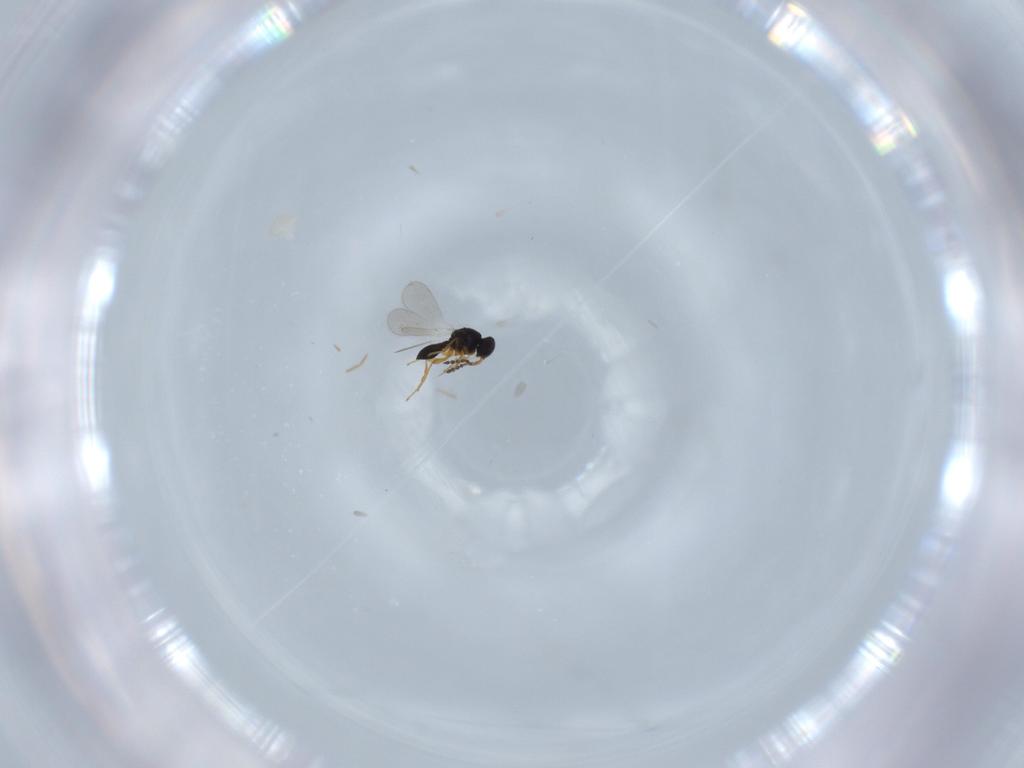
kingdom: Animalia
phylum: Arthropoda
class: Insecta
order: Hymenoptera
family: Platygastridae
